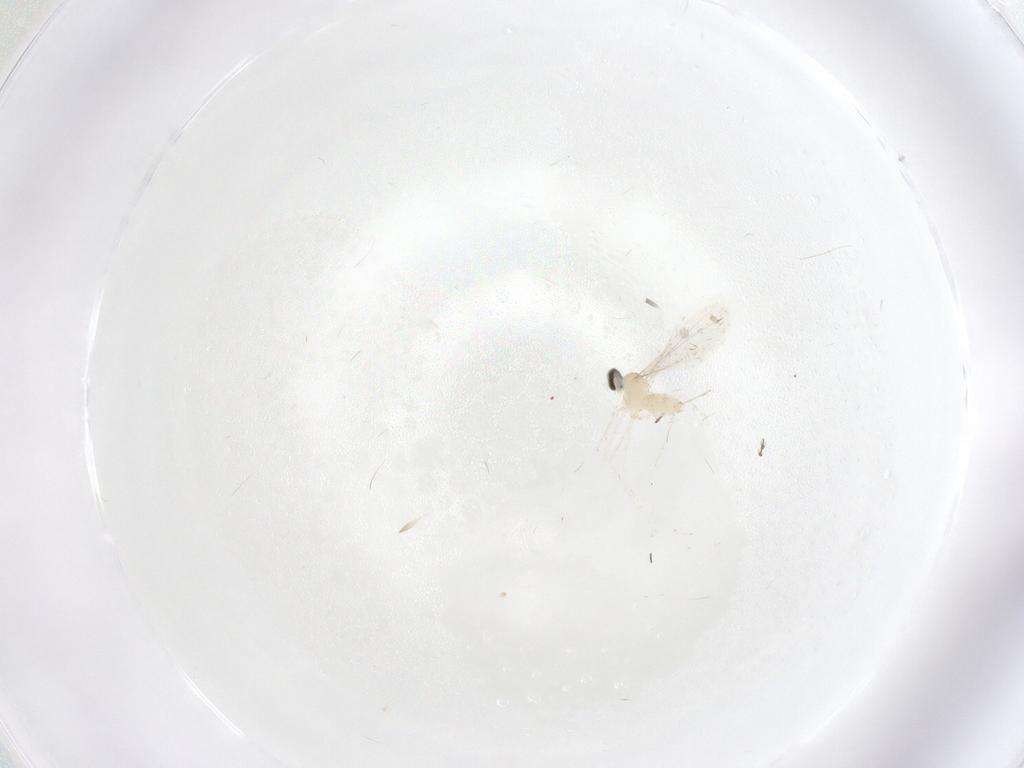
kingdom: Animalia
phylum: Arthropoda
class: Insecta
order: Diptera
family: Cecidomyiidae
